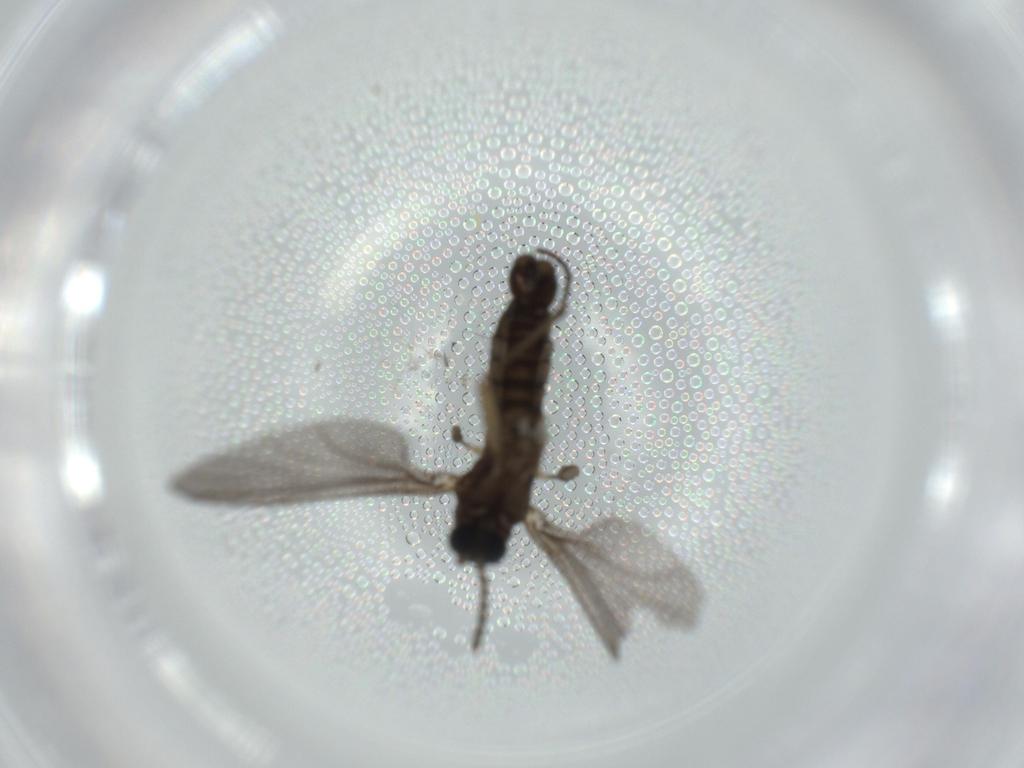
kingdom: Animalia
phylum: Arthropoda
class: Insecta
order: Diptera
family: Sciaridae
